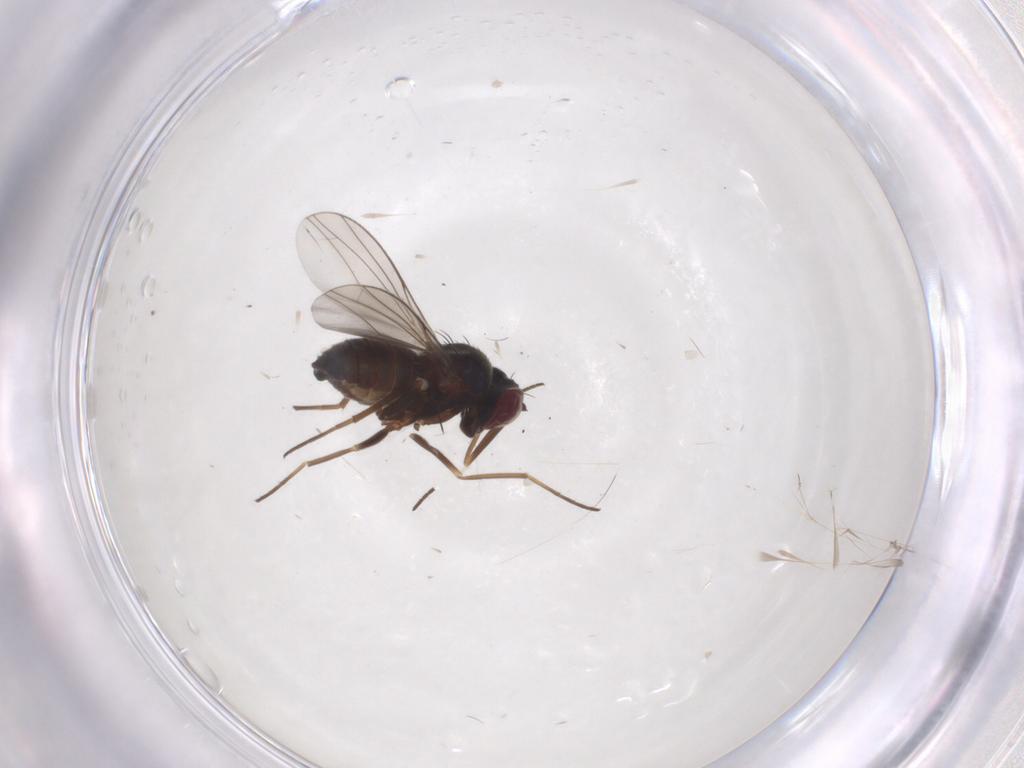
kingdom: Animalia
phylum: Arthropoda
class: Insecta
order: Diptera
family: Dolichopodidae
